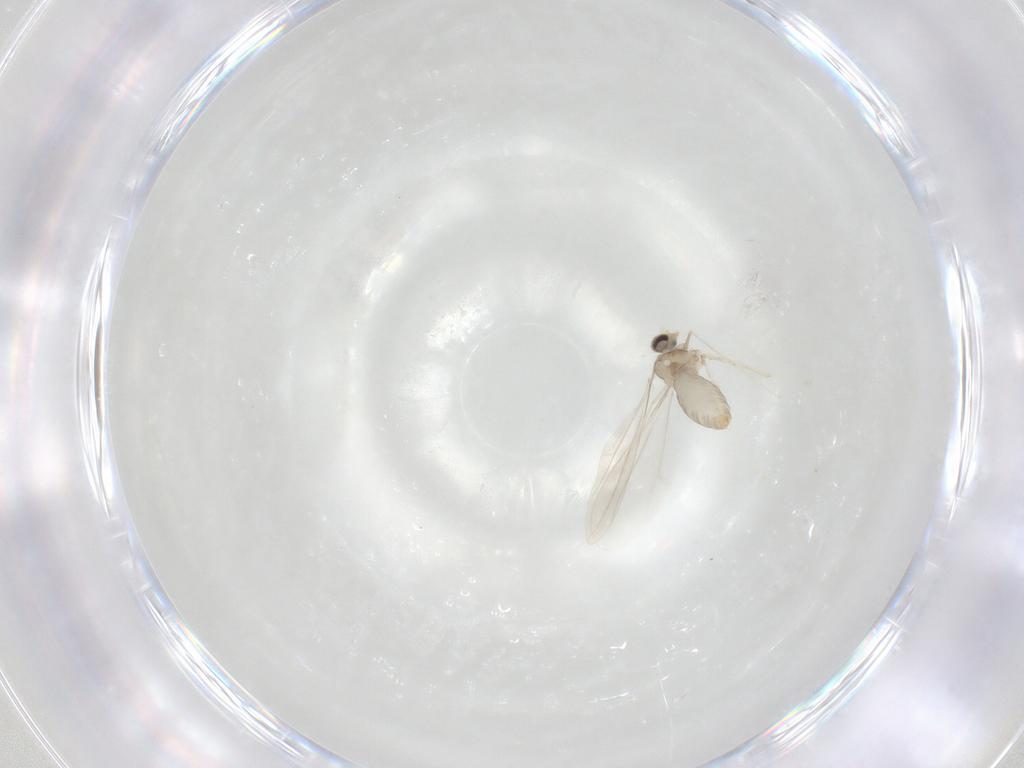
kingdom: Animalia
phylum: Arthropoda
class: Insecta
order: Diptera
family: Cecidomyiidae
